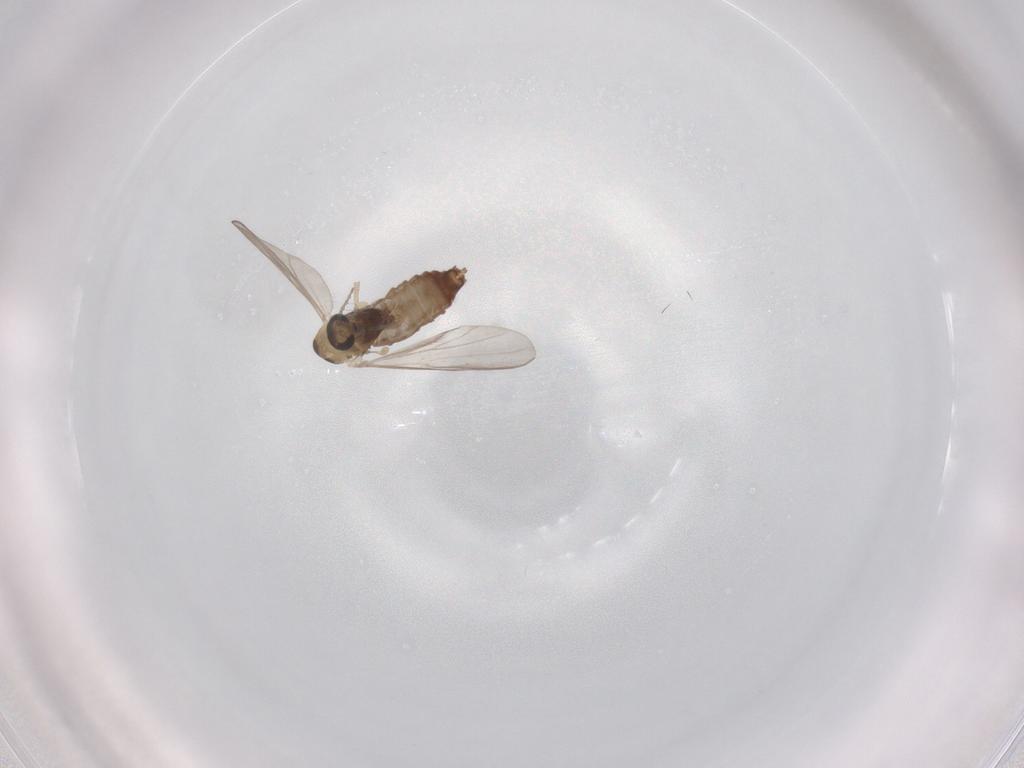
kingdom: Animalia
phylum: Arthropoda
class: Insecta
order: Diptera
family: Chironomidae
